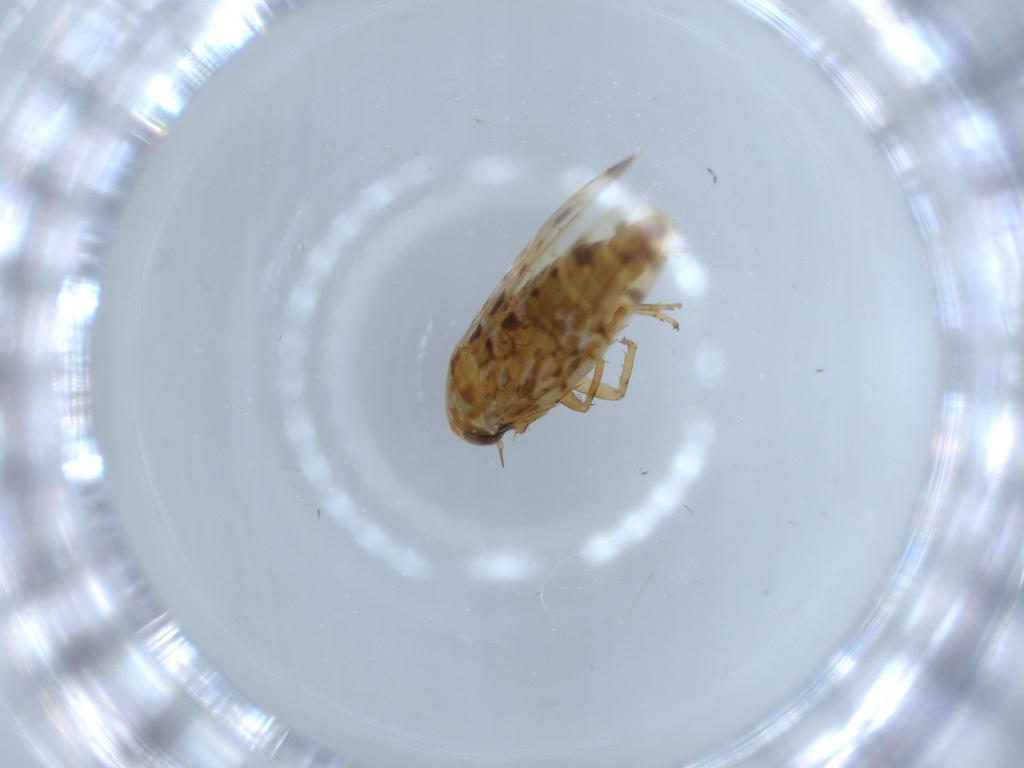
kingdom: Animalia
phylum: Arthropoda
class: Insecta
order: Hemiptera
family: Cicadellidae
